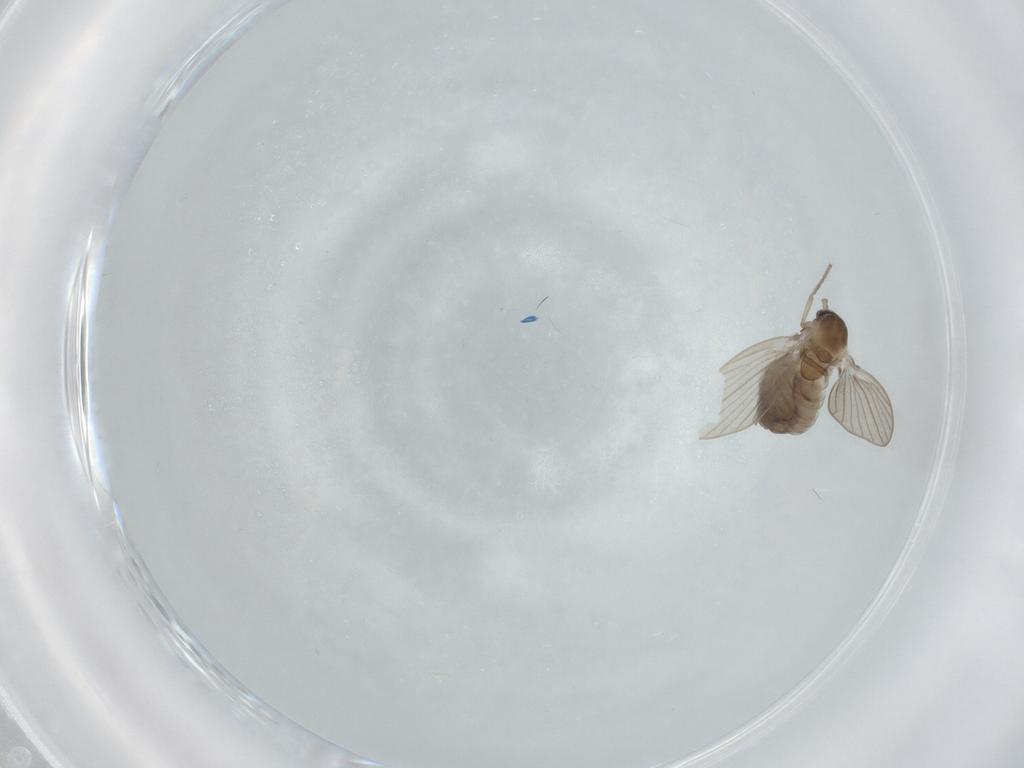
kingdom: Animalia
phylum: Arthropoda
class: Insecta
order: Diptera
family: Psychodidae
